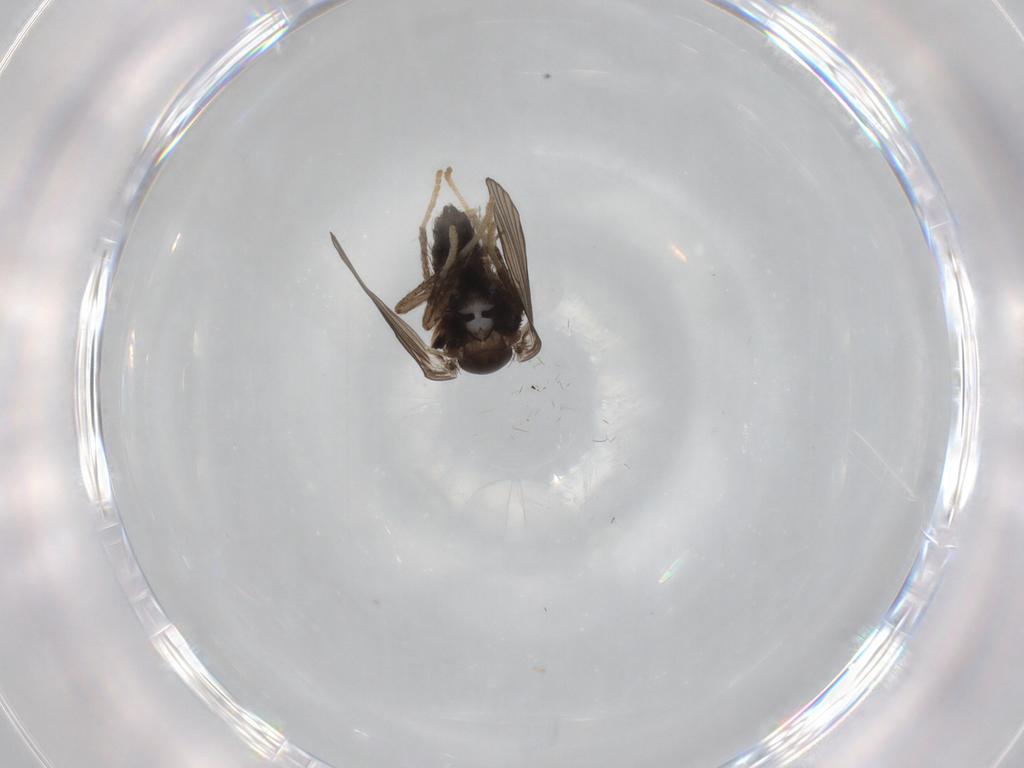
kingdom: Animalia
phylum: Arthropoda
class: Insecta
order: Diptera
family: Psychodidae
